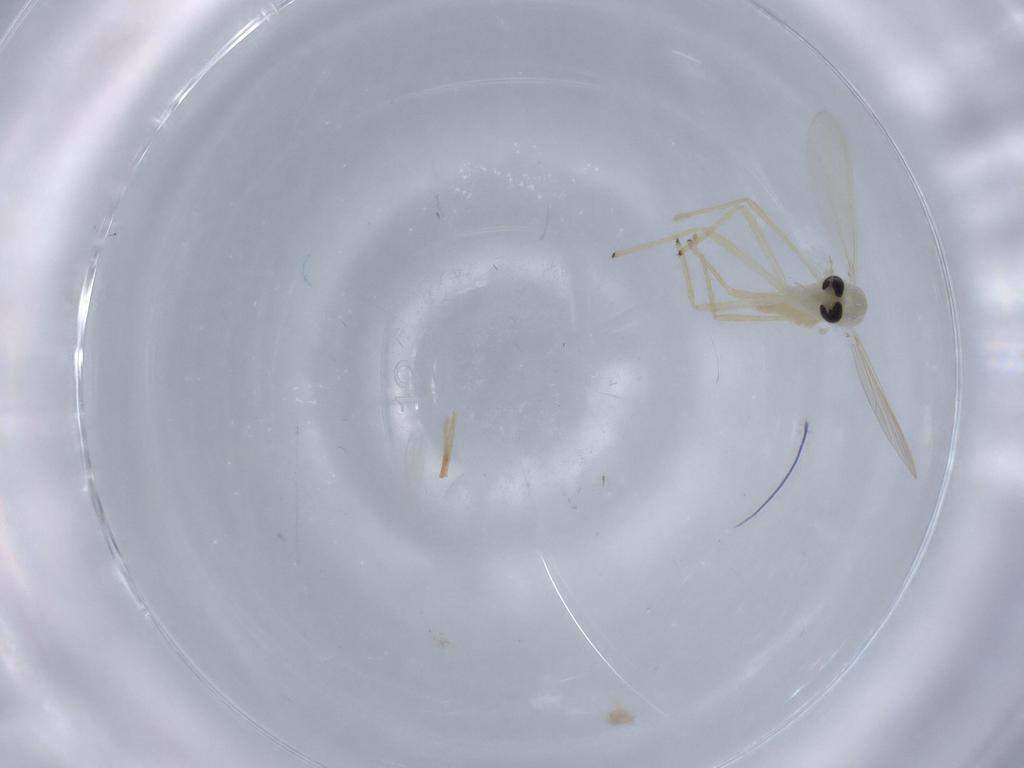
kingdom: Animalia
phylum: Arthropoda
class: Insecta
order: Diptera
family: Chironomidae
